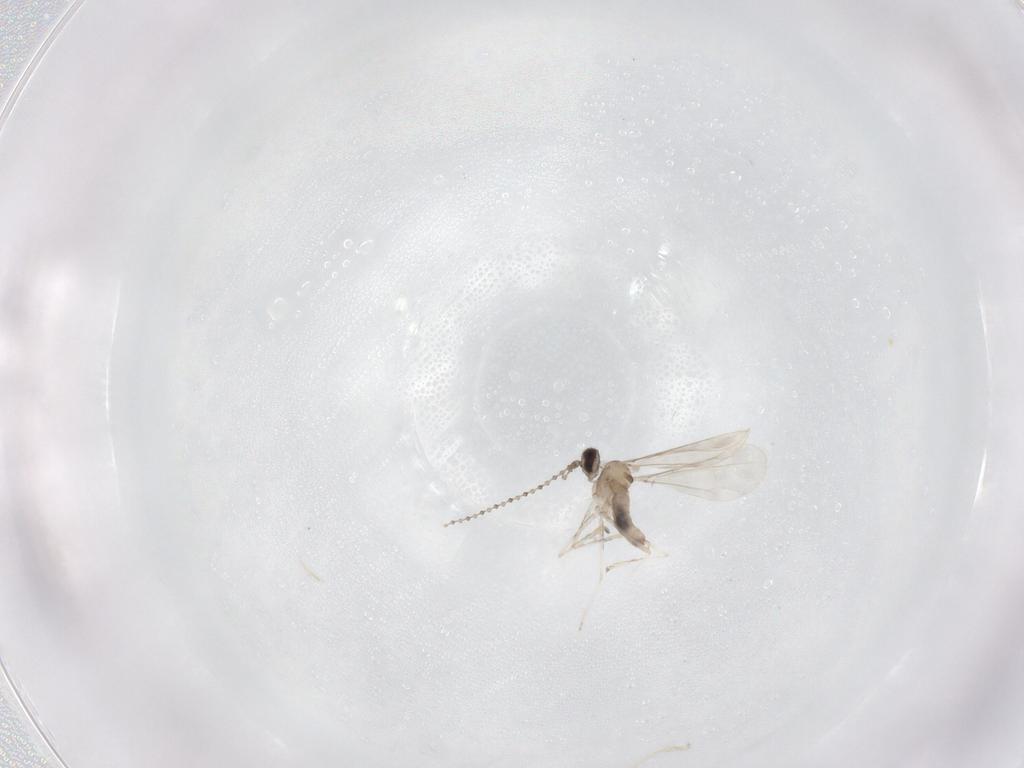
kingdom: Animalia
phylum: Arthropoda
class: Insecta
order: Diptera
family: Cecidomyiidae
